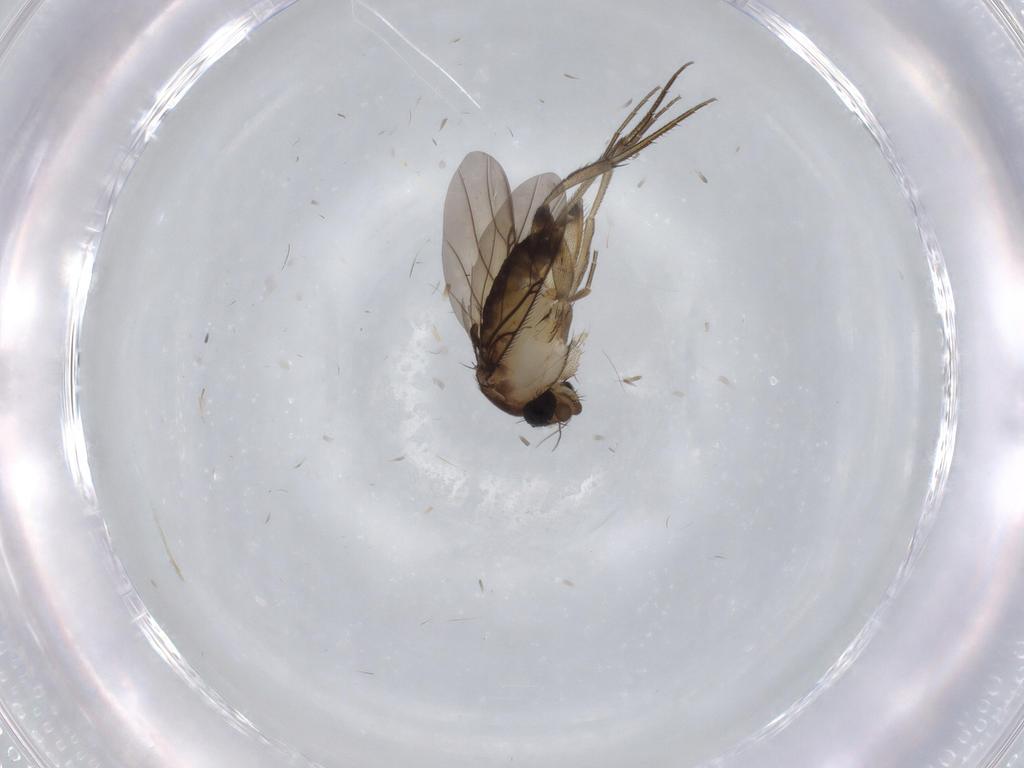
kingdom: Animalia
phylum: Arthropoda
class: Insecta
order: Diptera
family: Cecidomyiidae
